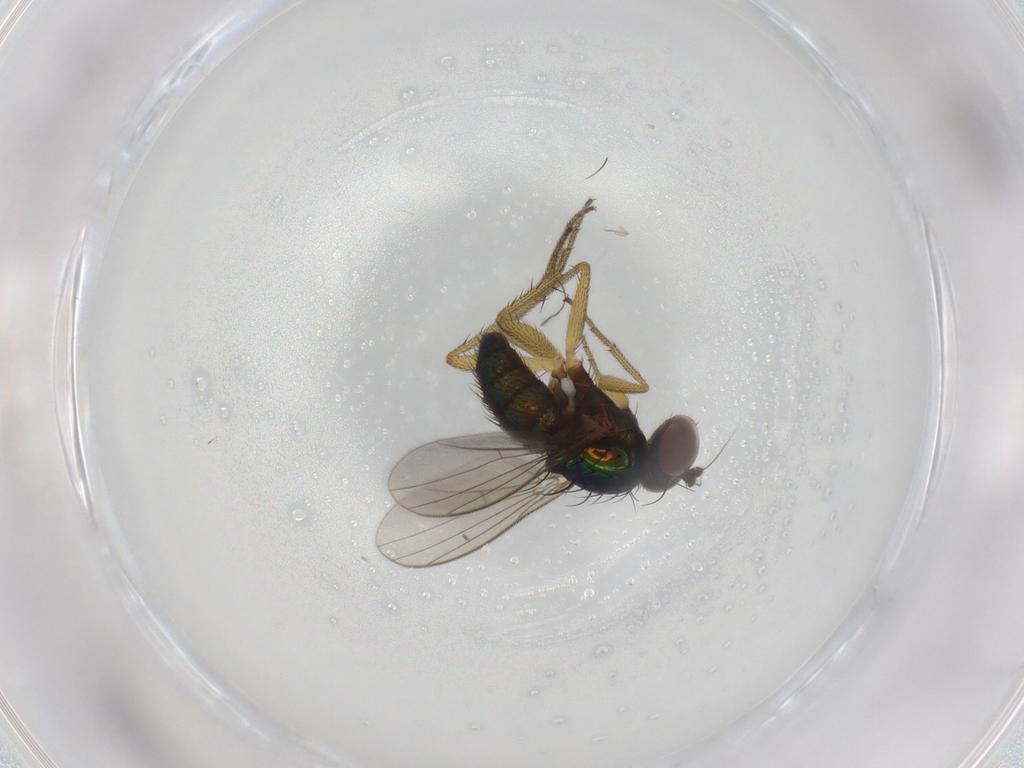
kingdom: Animalia
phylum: Arthropoda
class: Insecta
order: Diptera
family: Dolichopodidae
